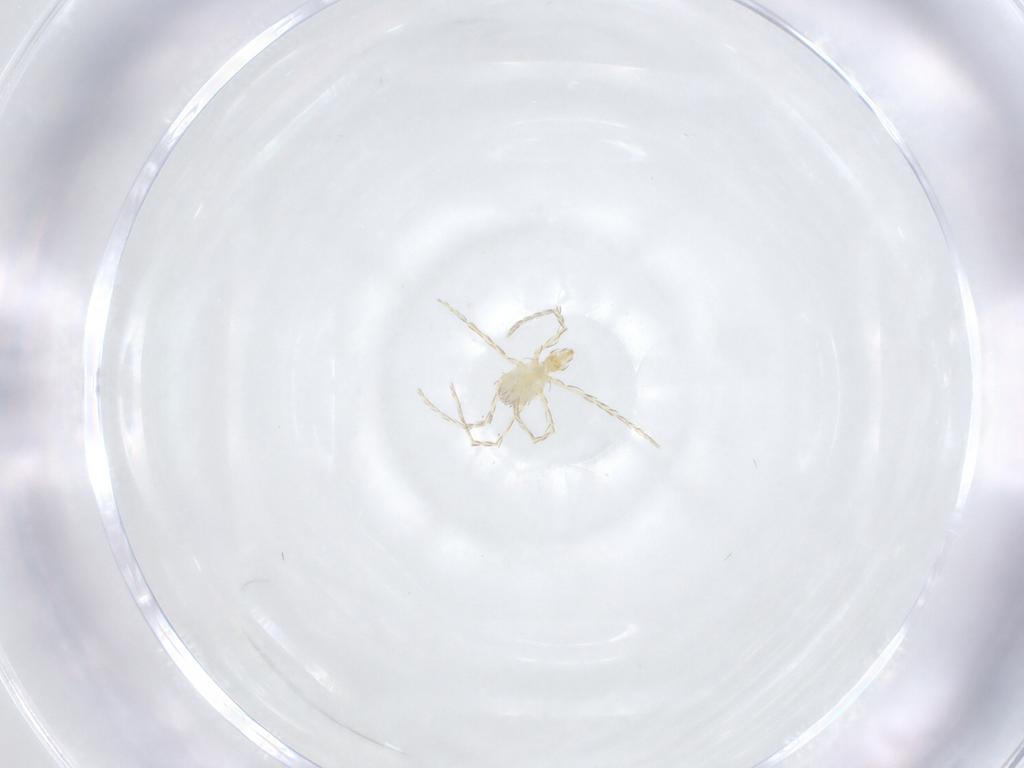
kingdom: Animalia
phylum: Arthropoda
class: Arachnida
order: Trombidiformes
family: Erythraeidae
